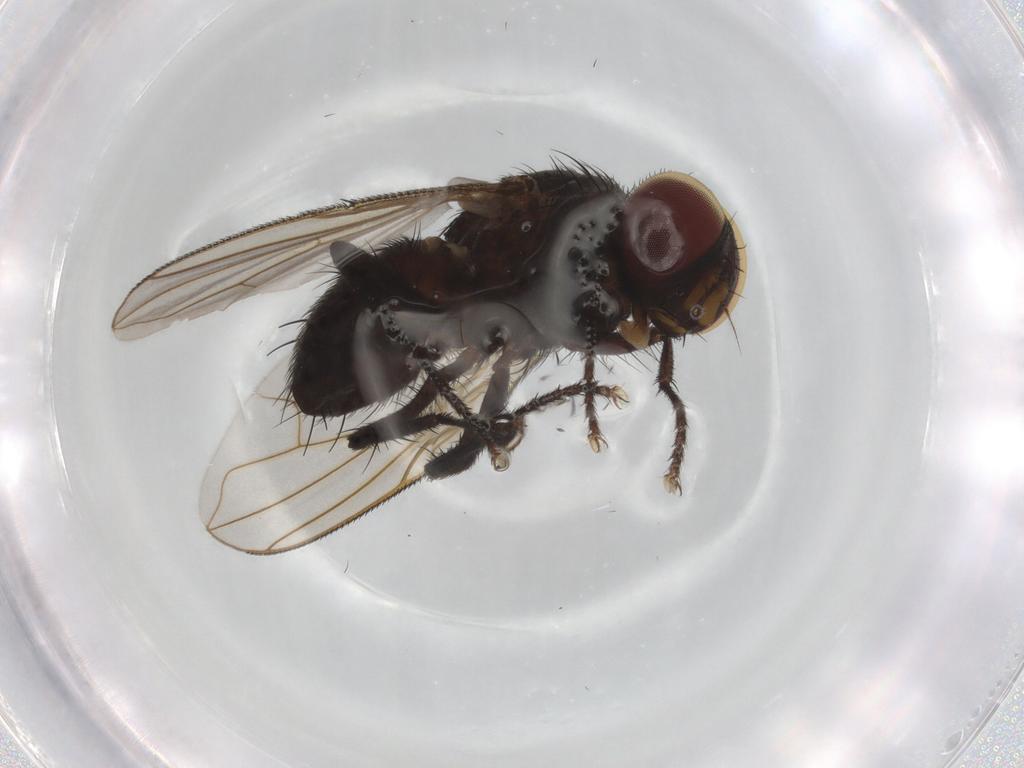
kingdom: Animalia
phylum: Arthropoda
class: Insecta
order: Diptera
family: Tachinidae
